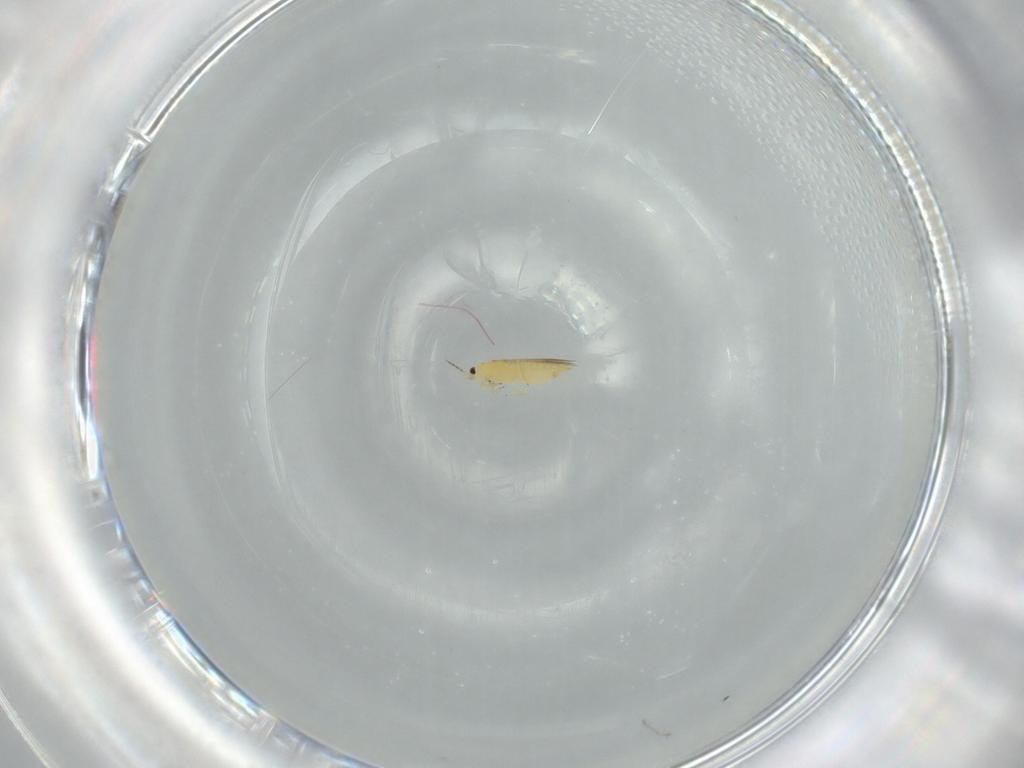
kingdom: Animalia
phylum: Arthropoda
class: Insecta
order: Thysanoptera
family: Thripidae
